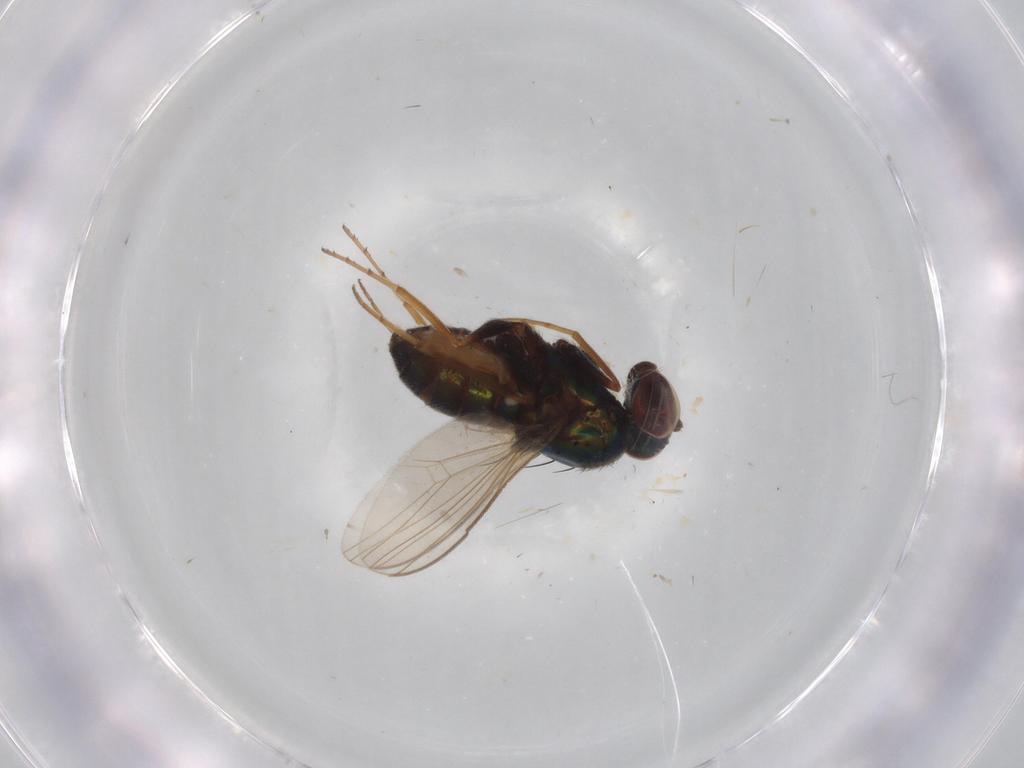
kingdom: Animalia
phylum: Arthropoda
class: Insecta
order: Diptera
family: Dolichopodidae
